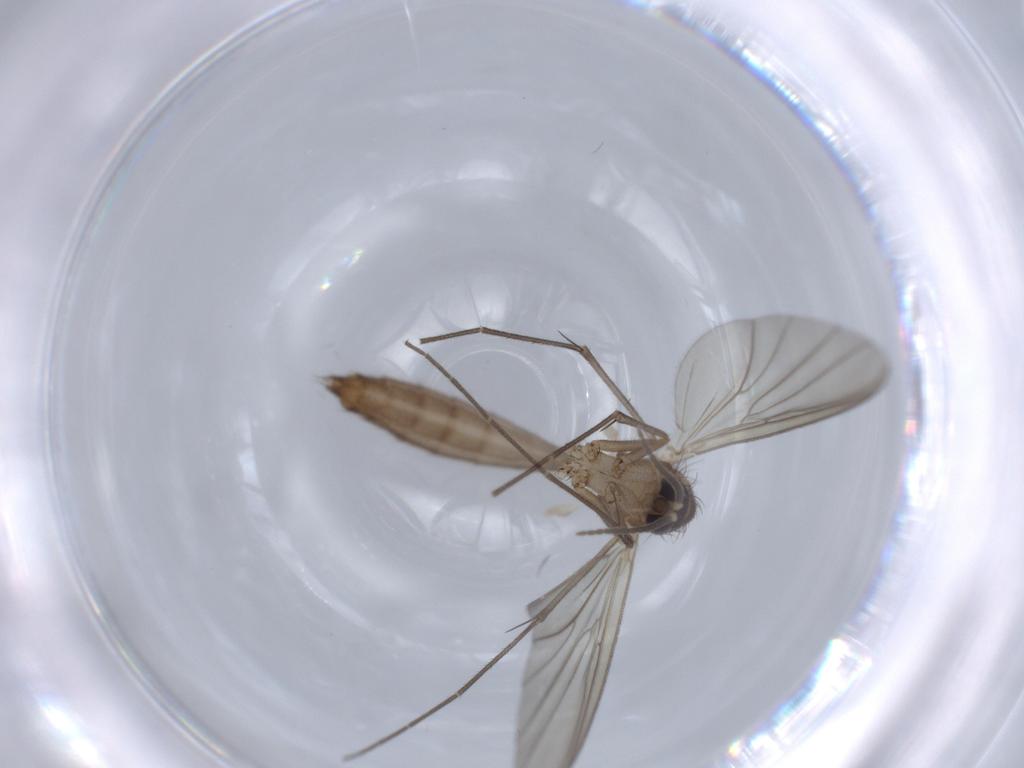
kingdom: Animalia
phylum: Arthropoda
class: Insecta
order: Diptera
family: Mycetophilidae
